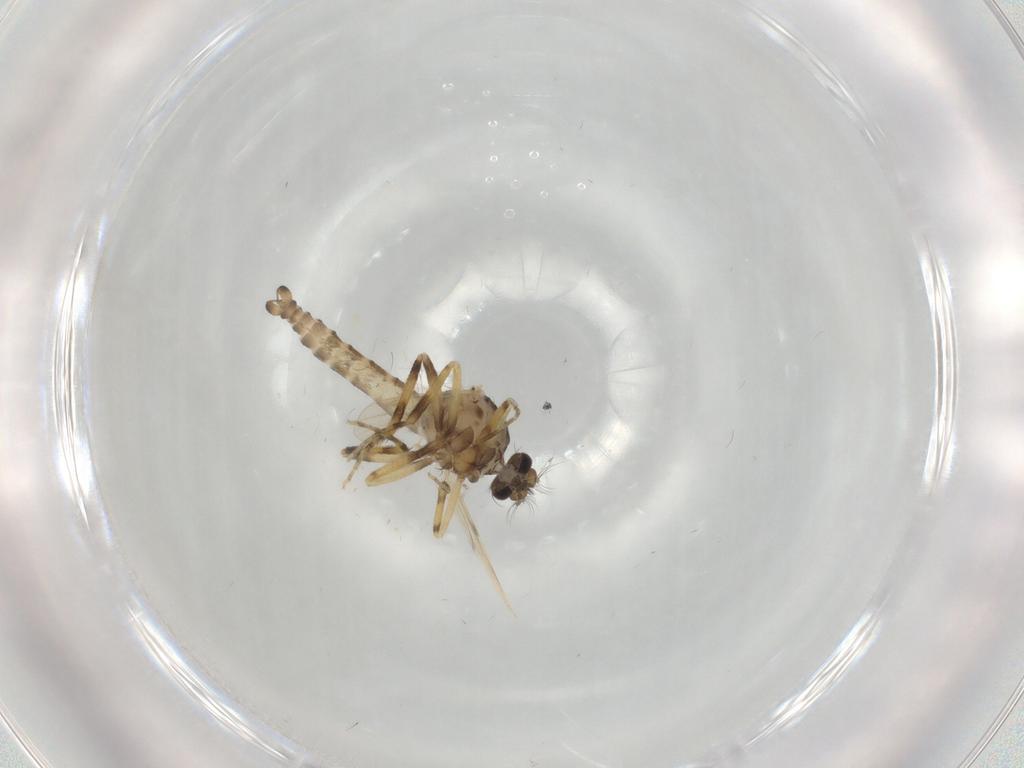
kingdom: Animalia
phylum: Arthropoda
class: Insecta
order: Diptera
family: Ceratopogonidae
